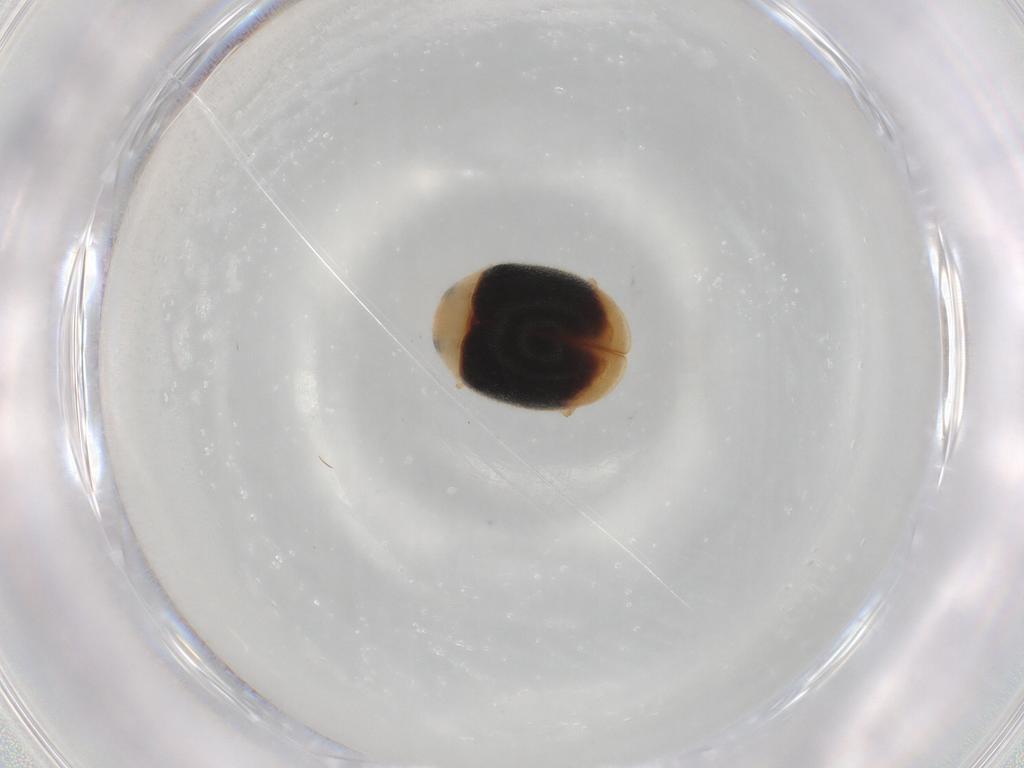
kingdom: Animalia
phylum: Arthropoda
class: Insecta
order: Coleoptera
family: Coccinellidae
